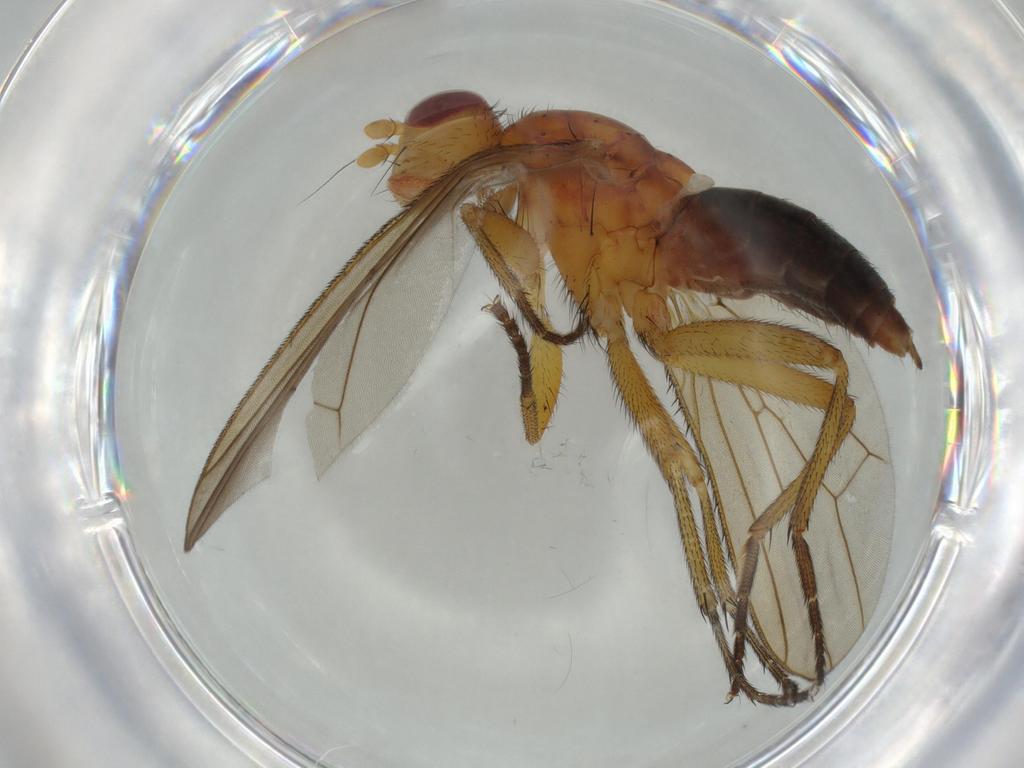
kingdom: Animalia
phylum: Arthropoda
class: Insecta
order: Diptera
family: Heleomyzidae
